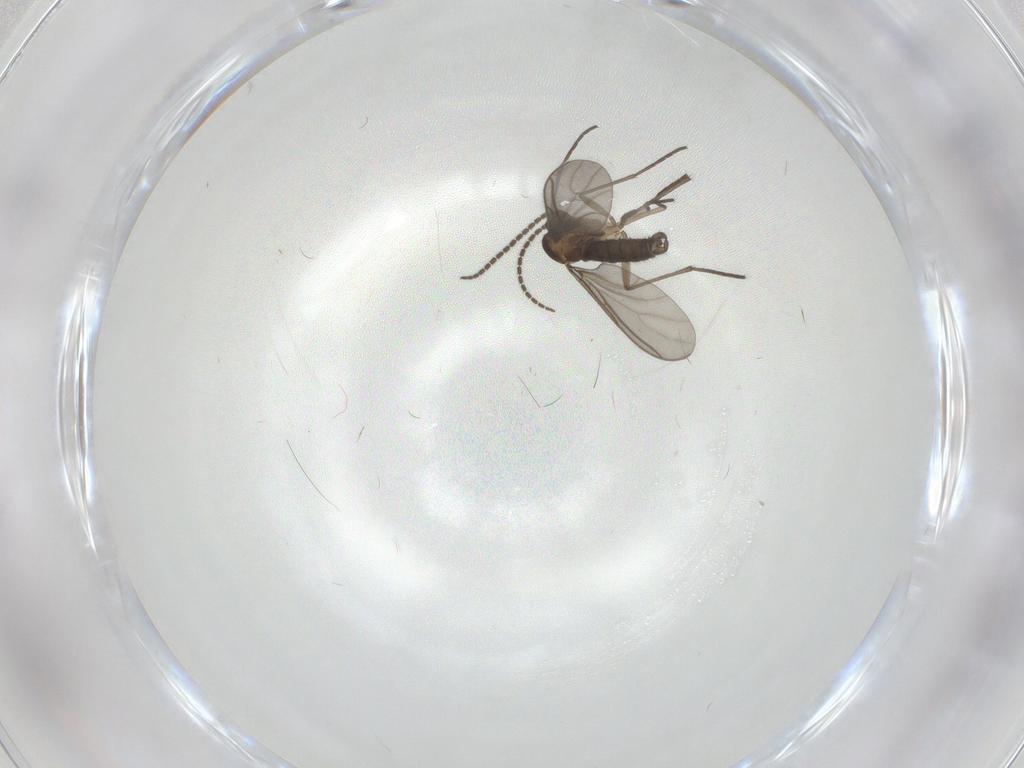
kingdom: Animalia
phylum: Arthropoda
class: Insecta
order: Diptera
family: Sciaridae
